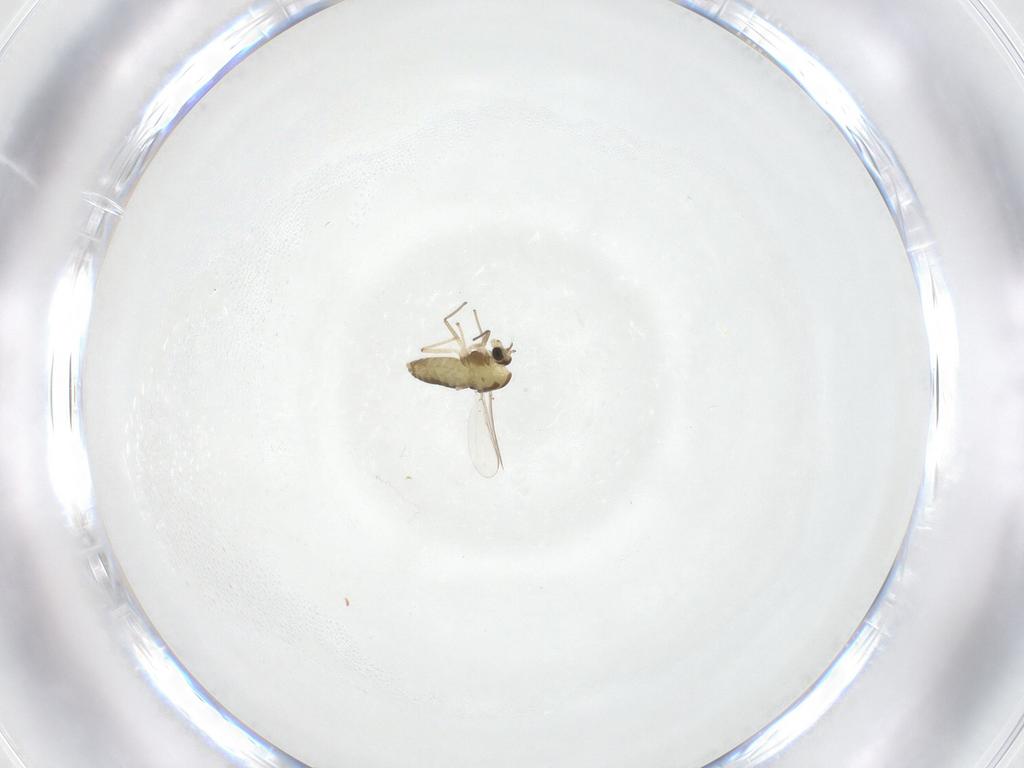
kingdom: Animalia
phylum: Arthropoda
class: Insecta
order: Diptera
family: Chironomidae
